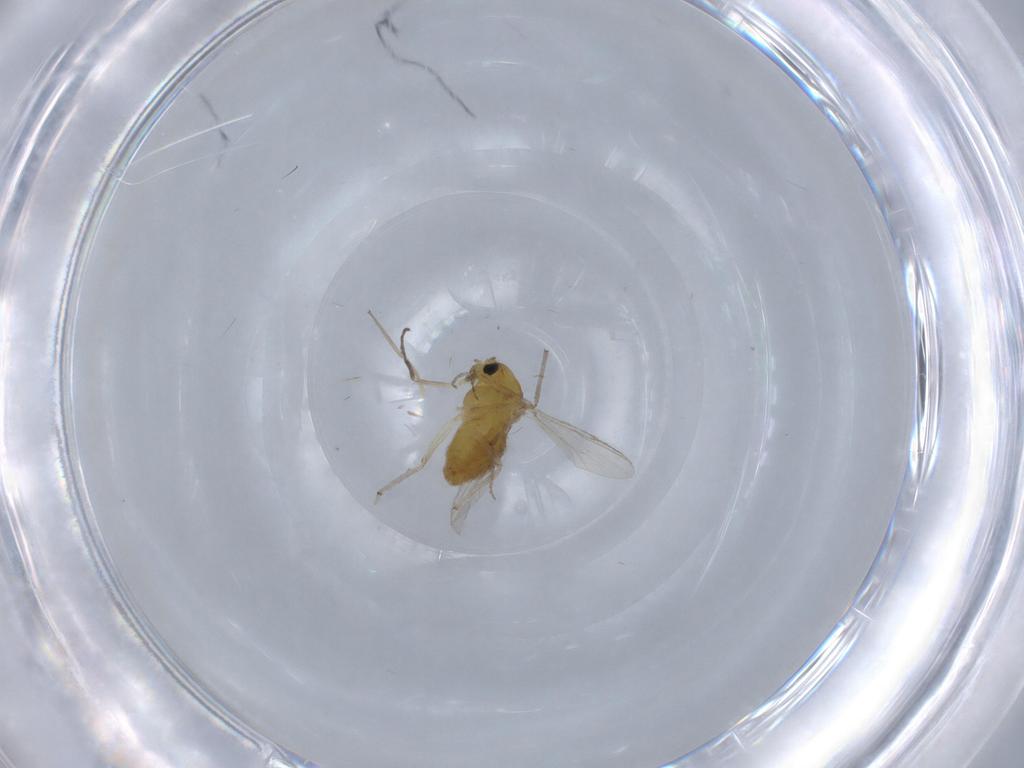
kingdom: Animalia
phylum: Arthropoda
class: Insecta
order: Diptera
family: Chironomidae
